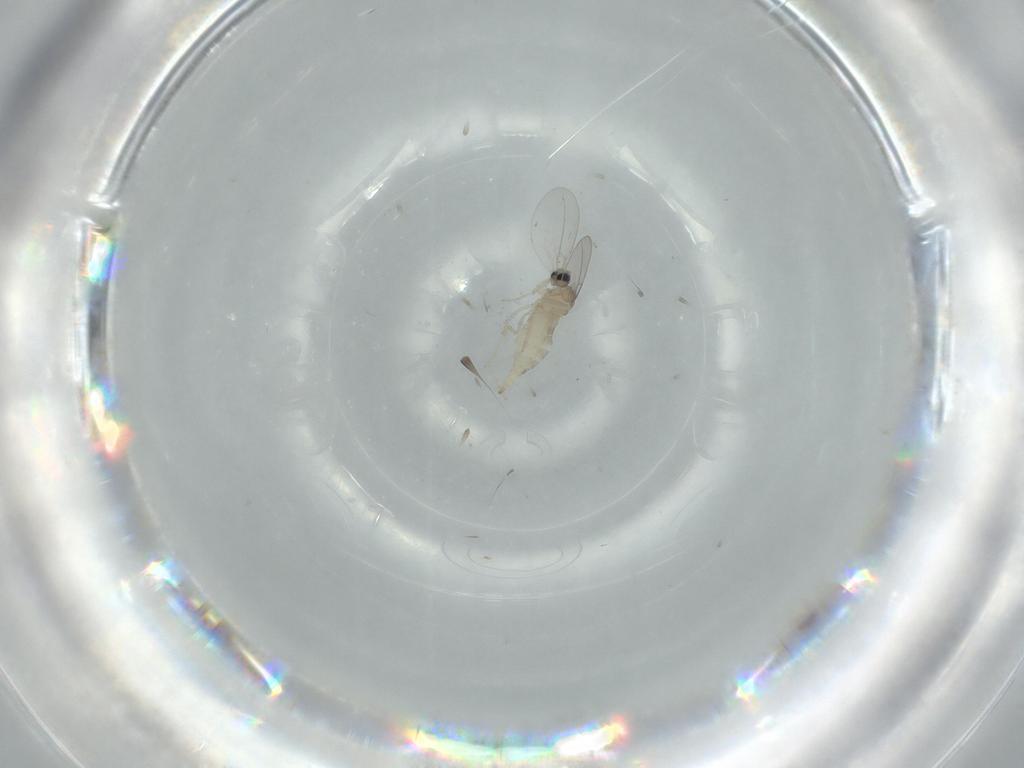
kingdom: Animalia
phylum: Arthropoda
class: Insecta
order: Diptera
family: Cecidomyiidae
